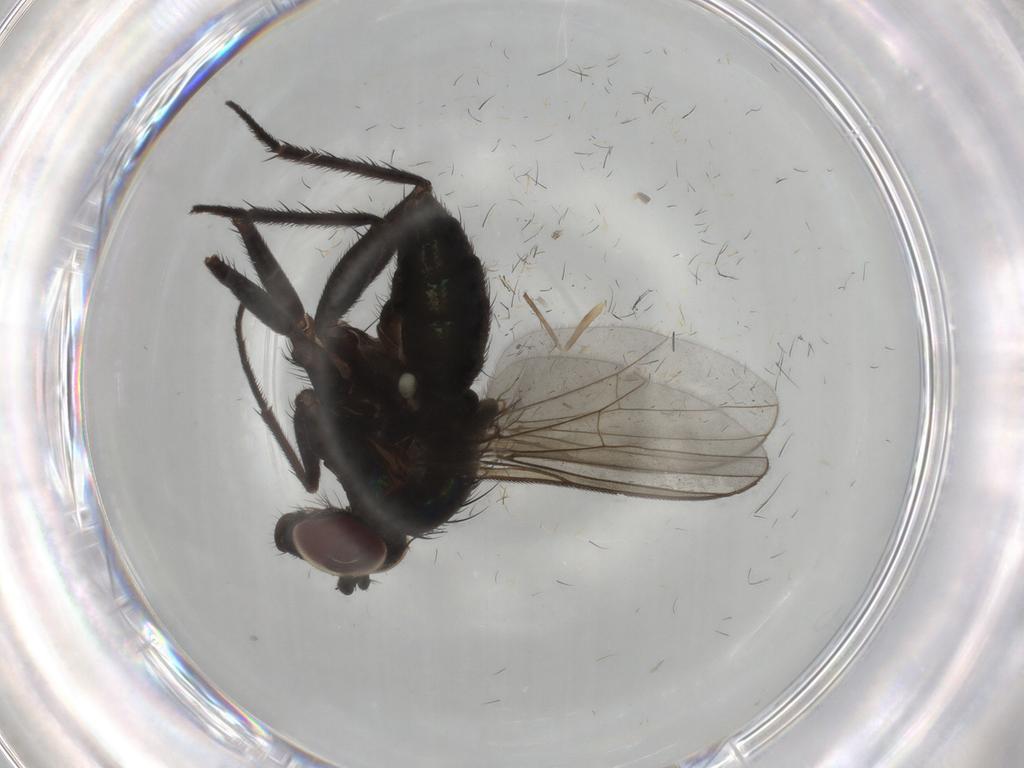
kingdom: Animalia
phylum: Arthropoda
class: Insecta
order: Diptera
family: Dolichopodidae
